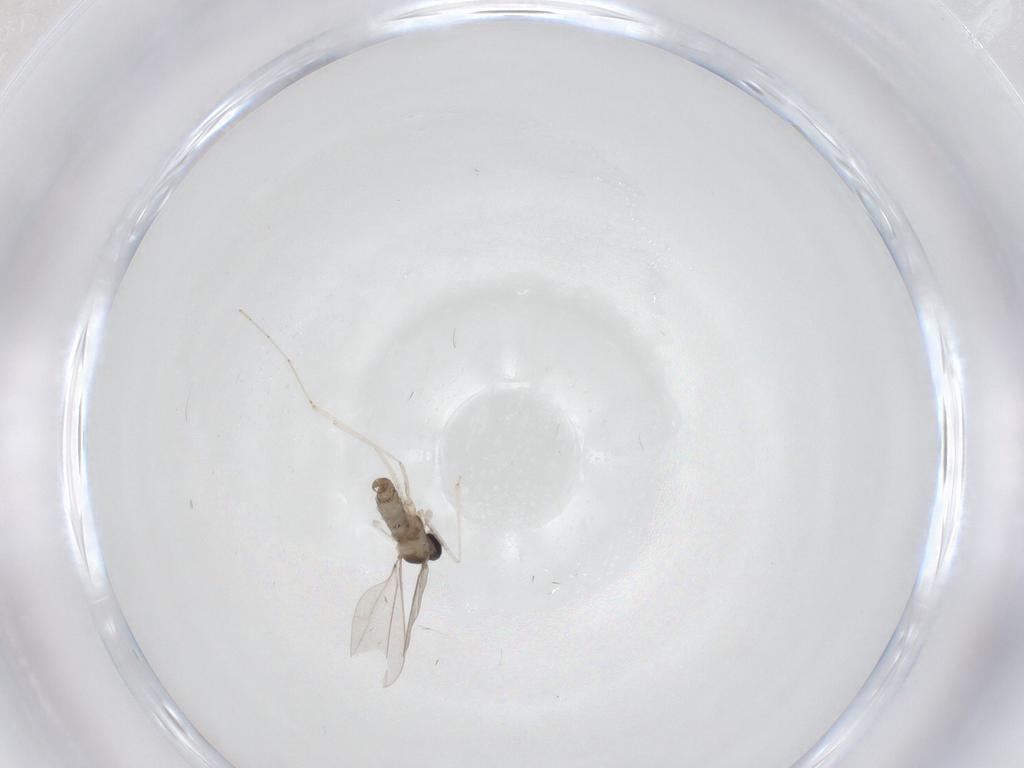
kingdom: Animalia
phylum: Arthropoda
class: Insecta
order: Diptera
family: Cecidomyiidae
